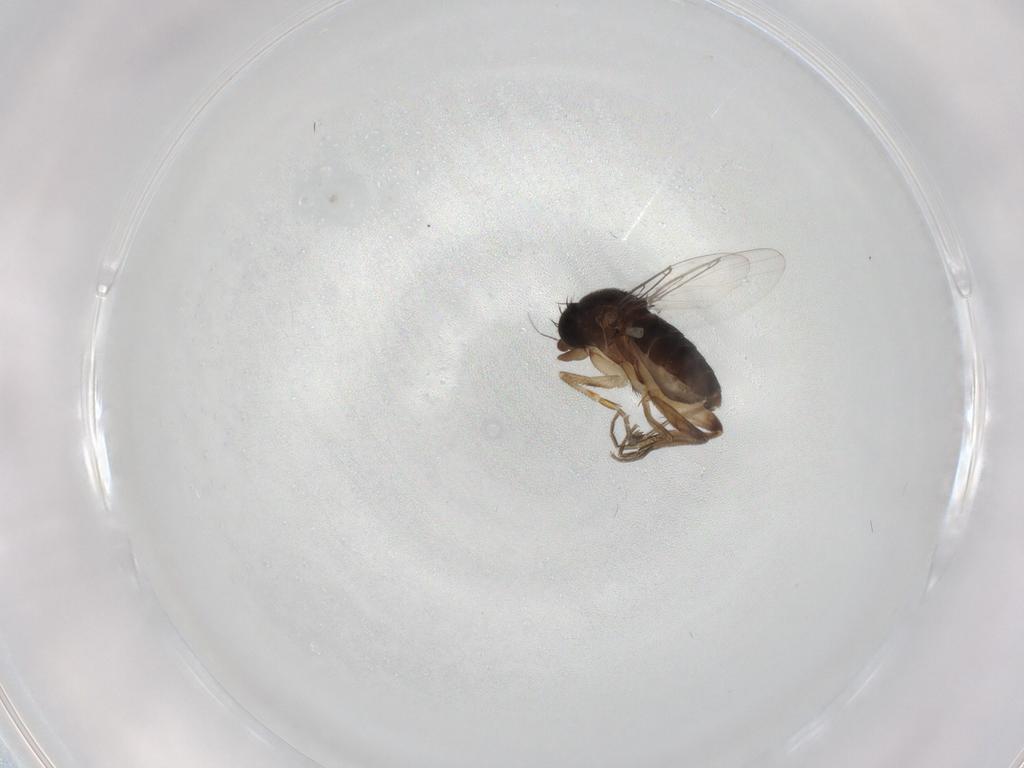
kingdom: Animalia
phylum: Arthropoda
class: Insecta
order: Diptera
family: Phoridae
